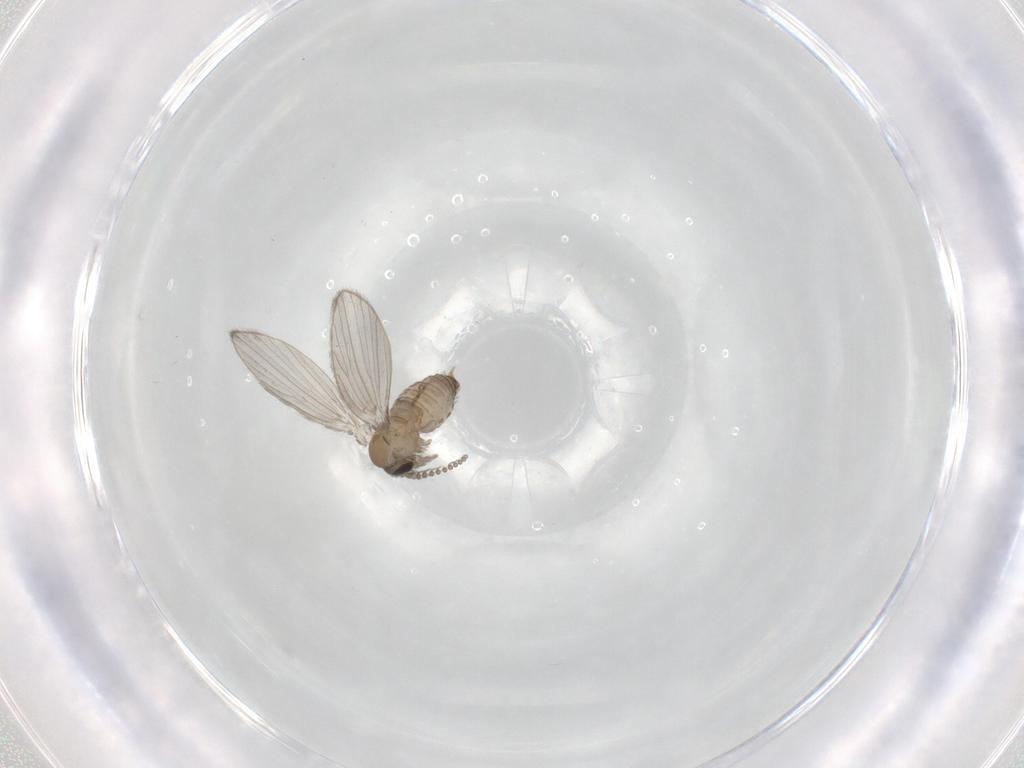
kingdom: Animalia
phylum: Arthropoda
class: Insecta
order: Diptera
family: Psychodidae
